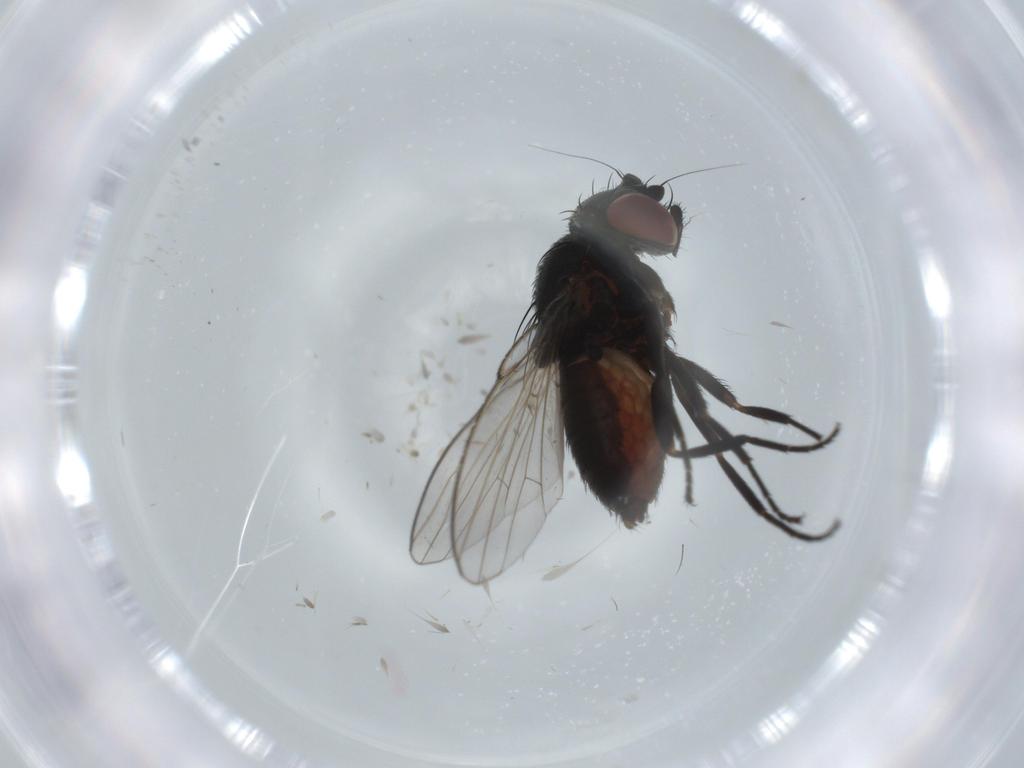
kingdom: Animalia
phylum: Arthropoda
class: Insecta
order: Diptera
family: Milichiidae
